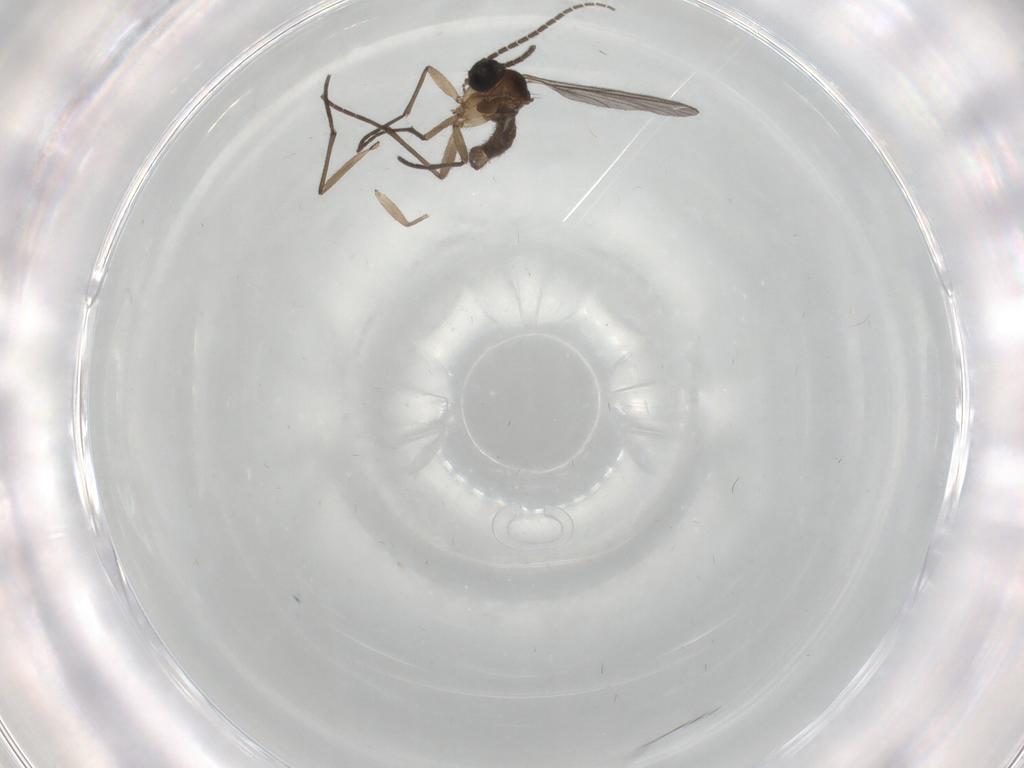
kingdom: Animalia
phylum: Arthropoda
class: Insecta
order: Diptera
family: Sciaridae
